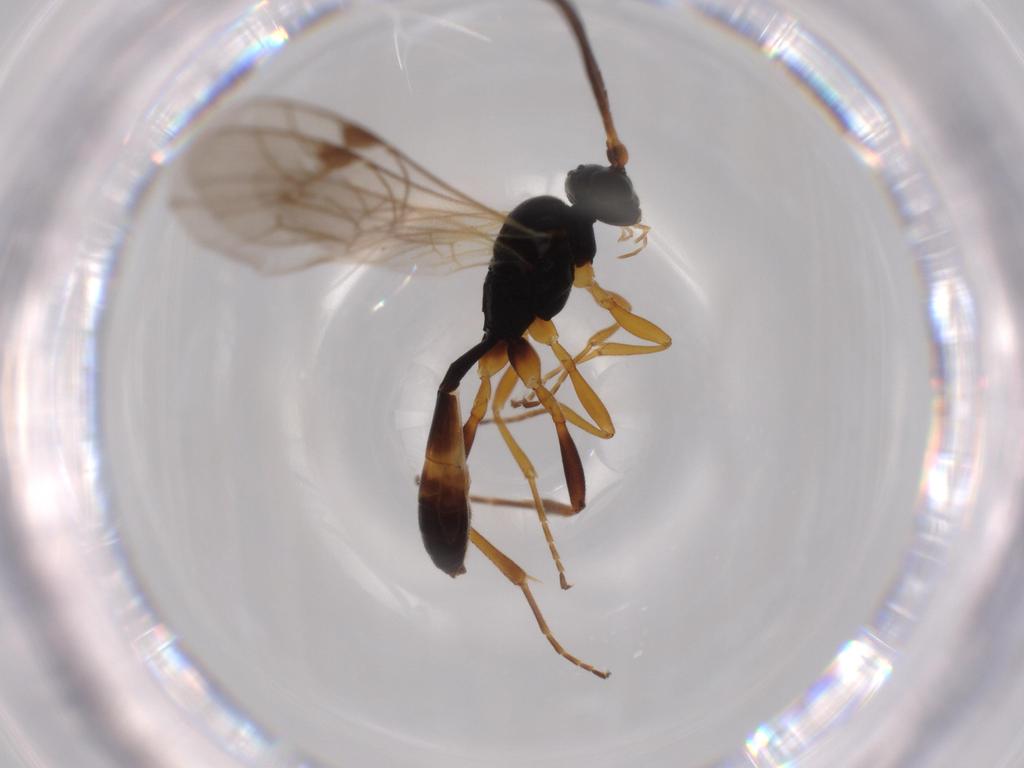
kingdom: Animalia
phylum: Arthropoda
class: Insecta
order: Hymenoptera
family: Ichneumonidae
